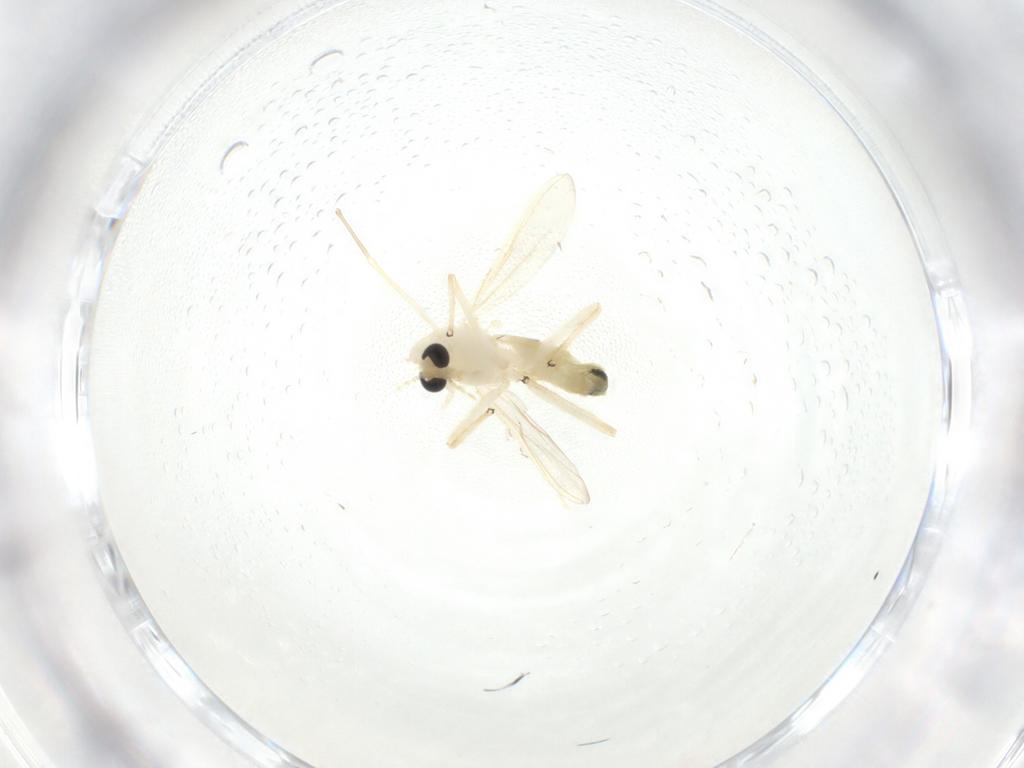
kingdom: Animalia
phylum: Arthropoda
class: Insecta
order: Diptera
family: Chironomidae
